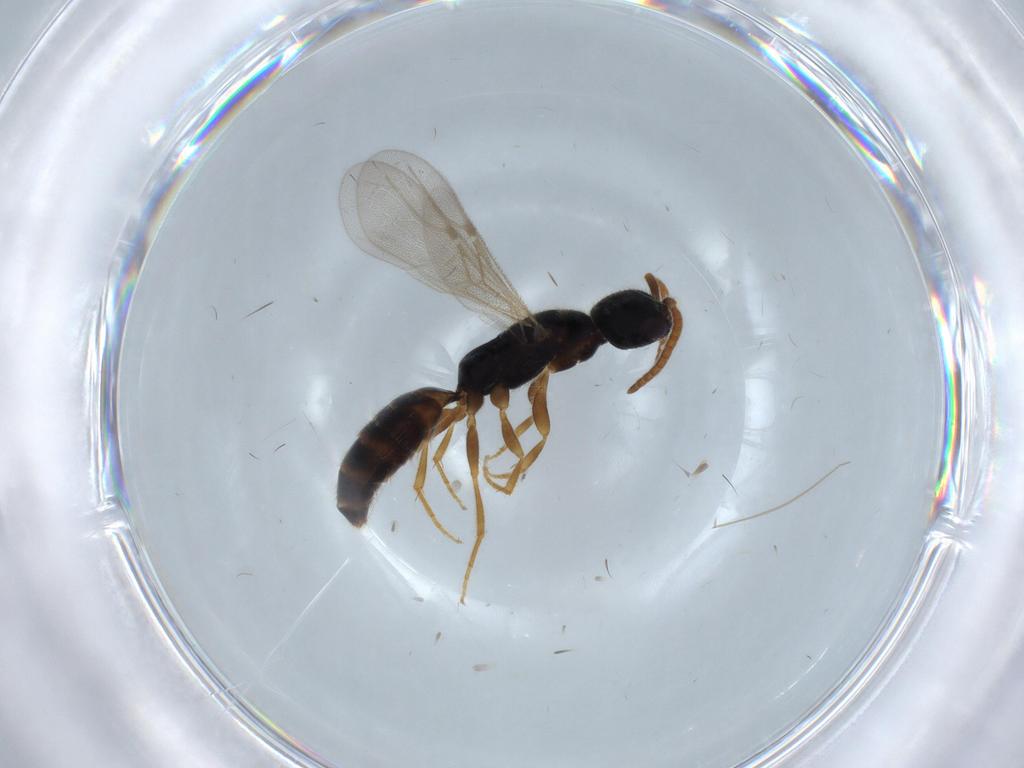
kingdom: Animalia
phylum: Arthropoda
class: Insecta
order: Hymenoptera
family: Bethylidae
